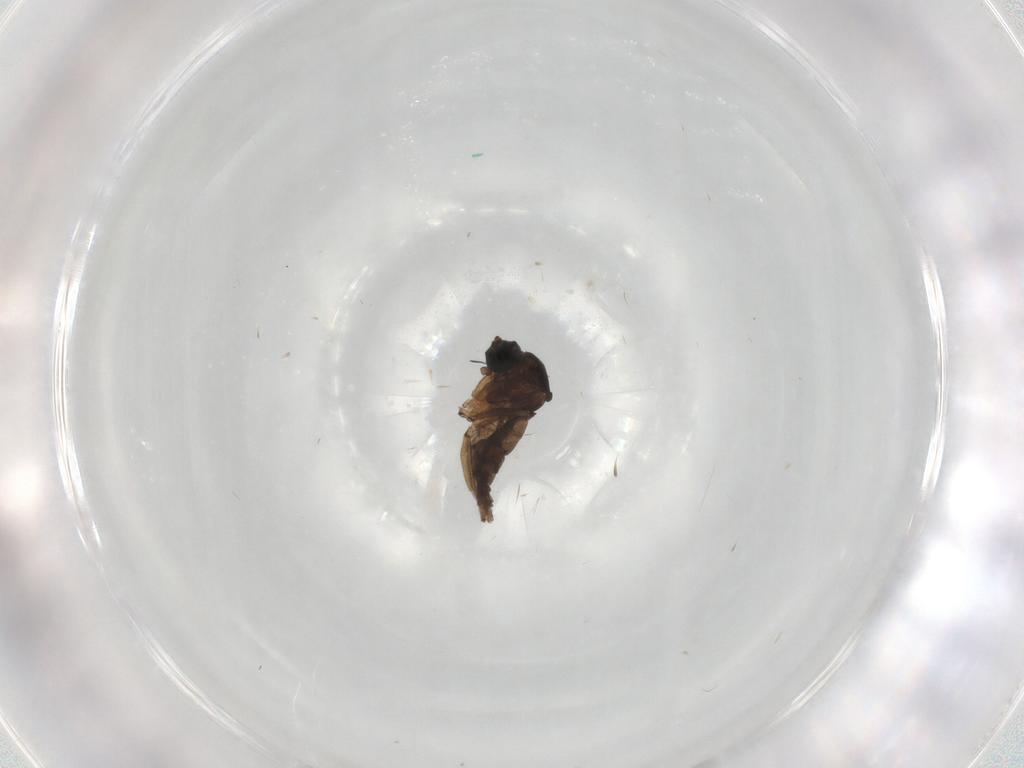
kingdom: Animalia
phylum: Arthropoda
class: Insecta
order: Diptera
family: Sciaridae
